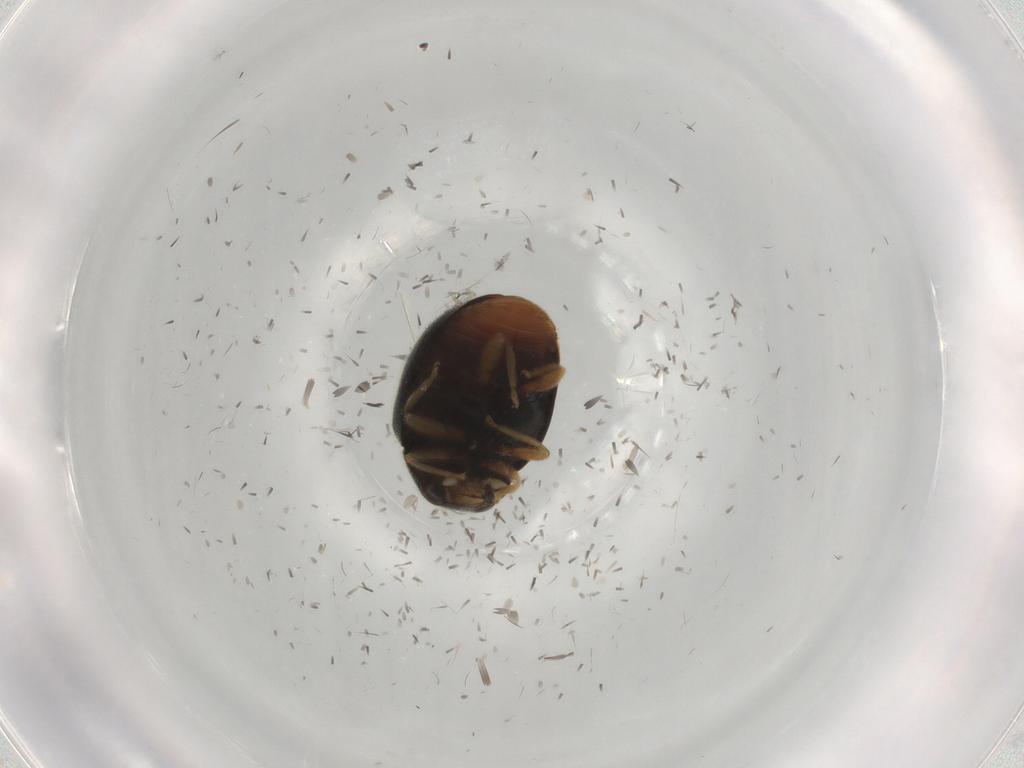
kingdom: Animalia
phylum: Arthropoda
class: Insecta
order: Coleoptera
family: Coccinellidae
